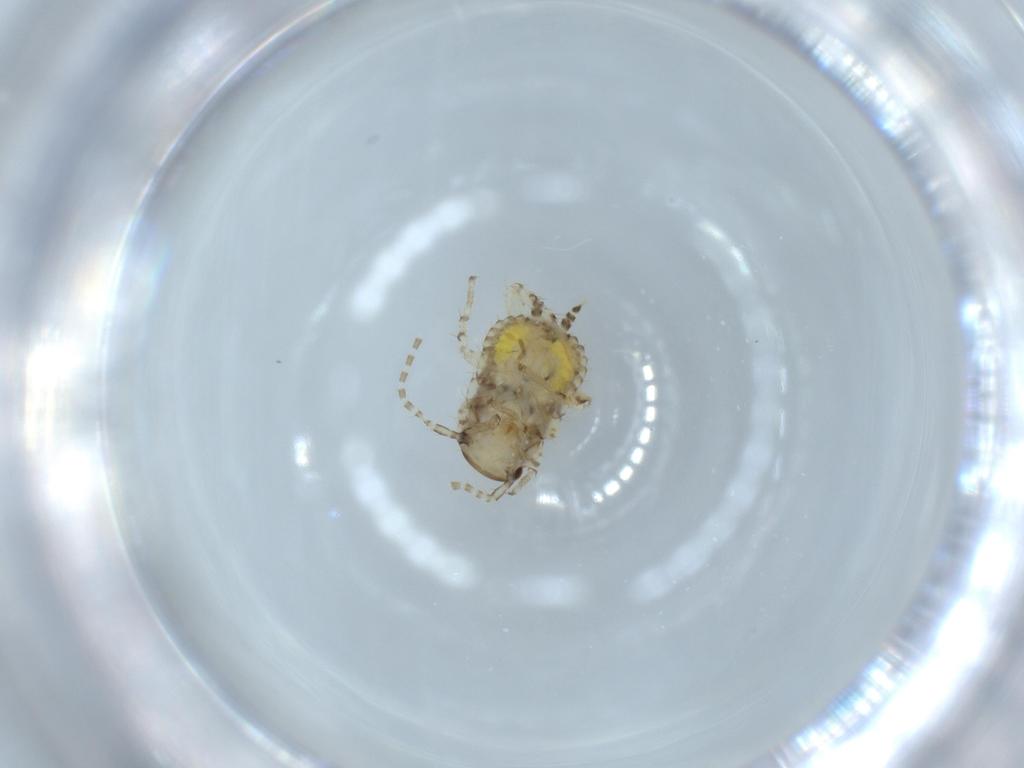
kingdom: Animalia
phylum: Arthropoda
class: Insecta
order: Blattodea
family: Ectobiidae
